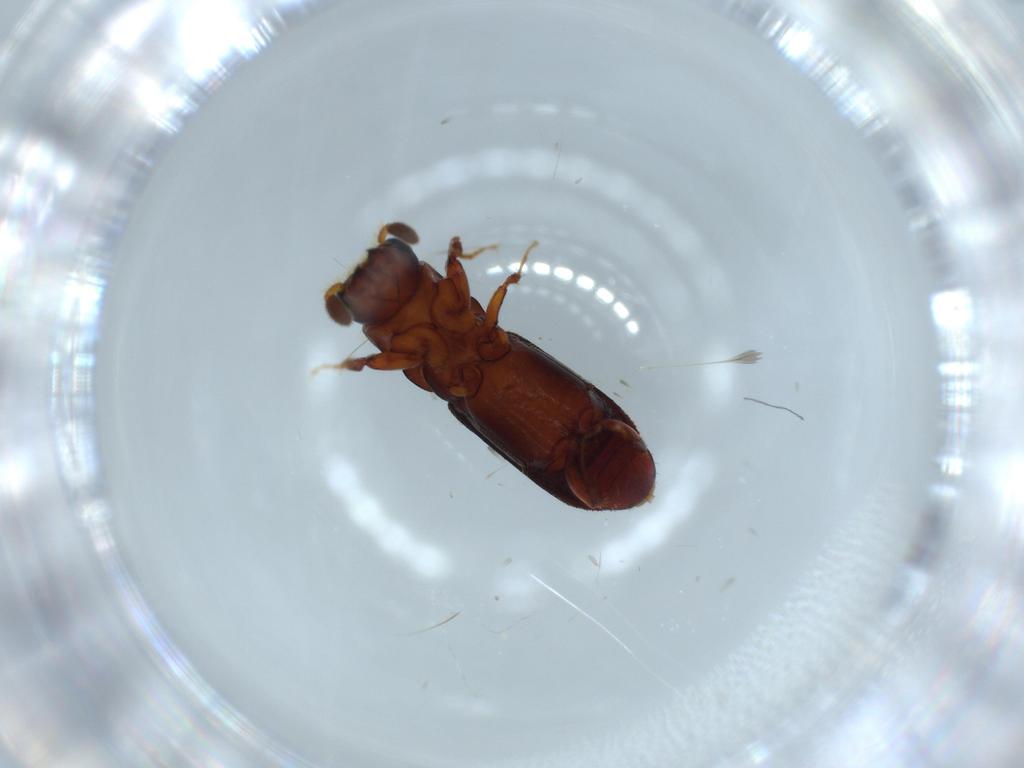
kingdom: Animalia
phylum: Arthropoda
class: Insecta
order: Coleoptera
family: Curculionidae
